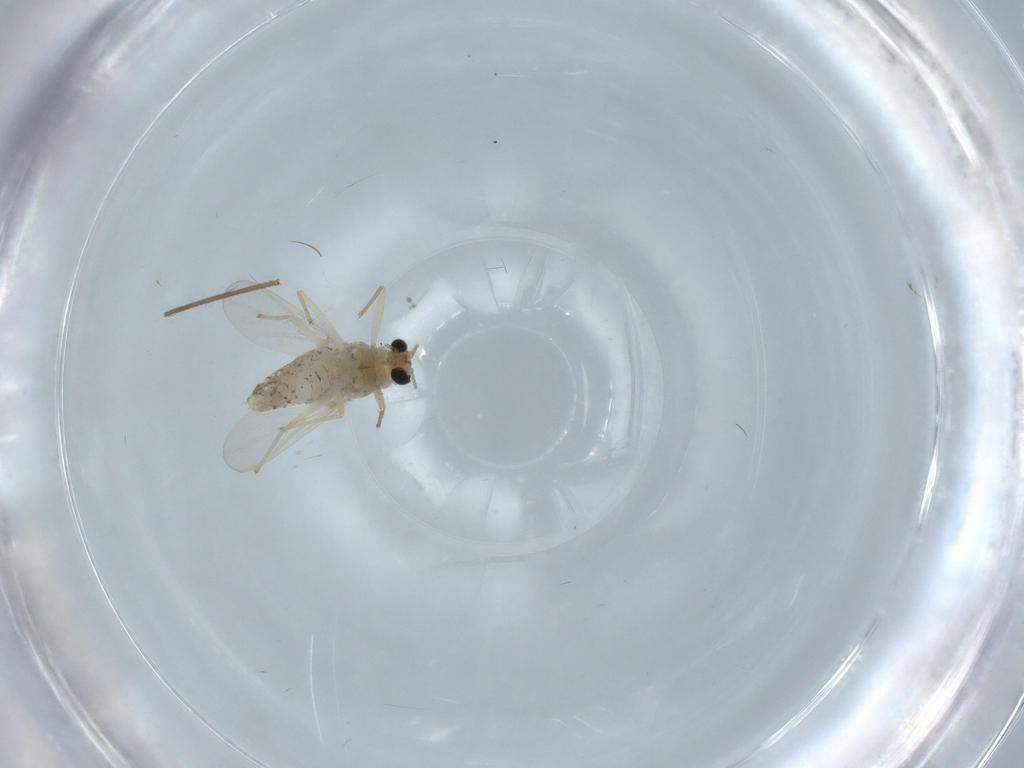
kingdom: Animalia
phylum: Arthropoda
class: Insecta
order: Diptera
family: Chironomidae
